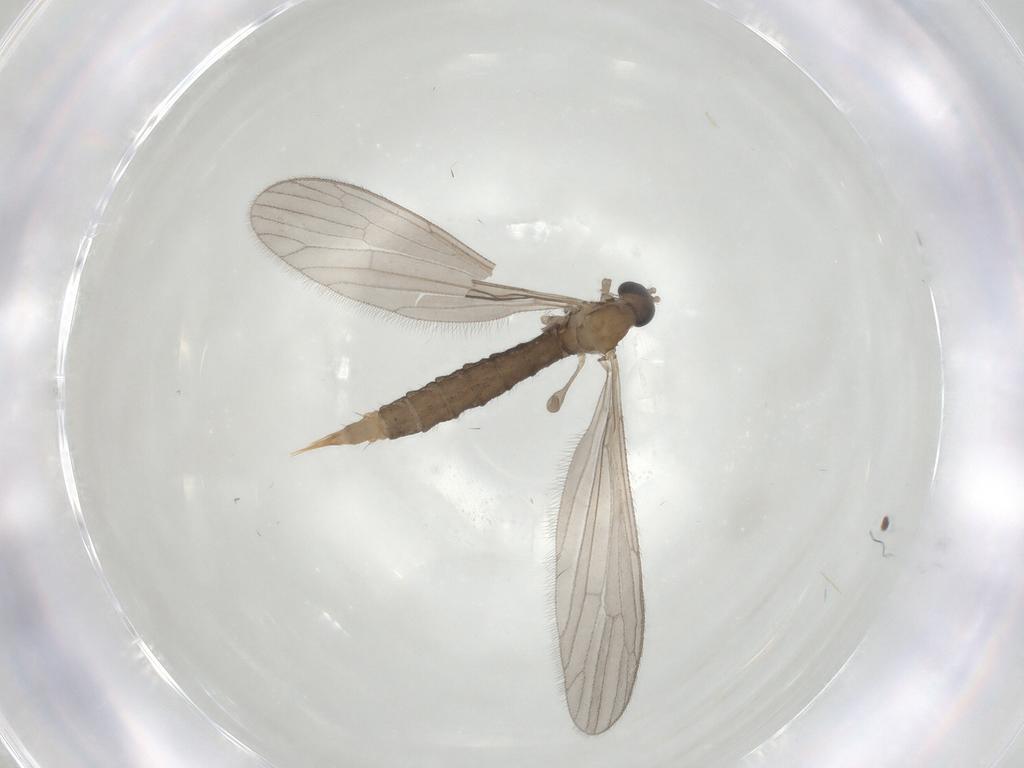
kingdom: Animalia
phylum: Arthropoda
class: Insecta
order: Diptera
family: Limoniidae
